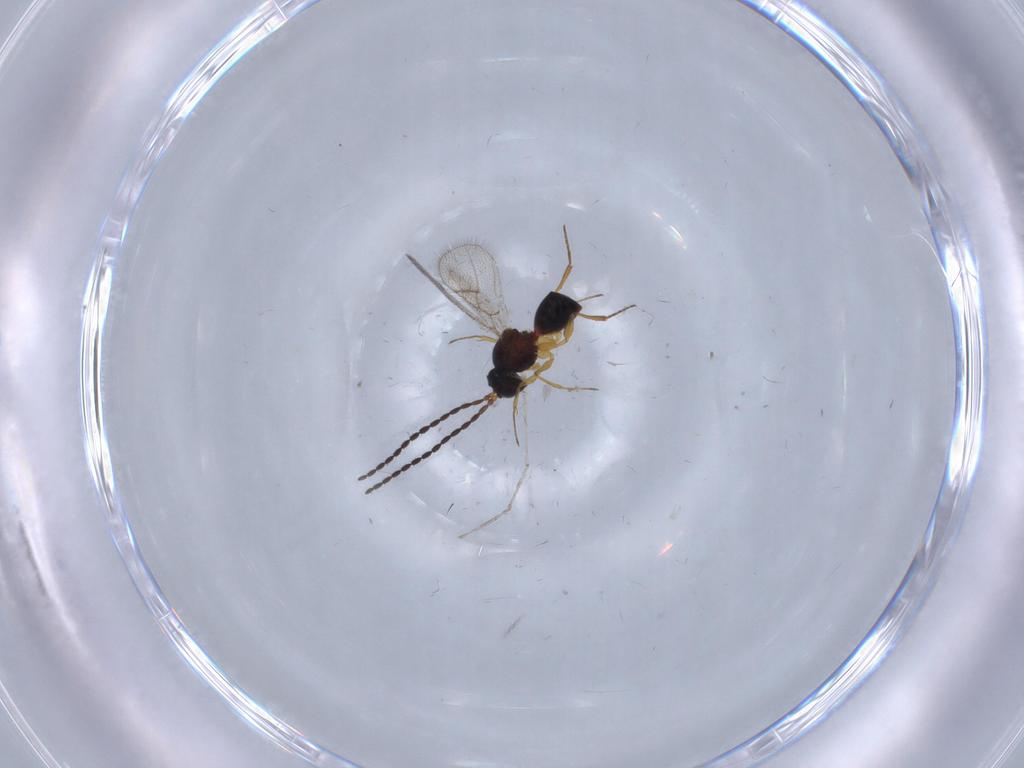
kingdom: Animalia
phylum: Arthropoda
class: Insecta
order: Hymenoptera
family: Figitidae
